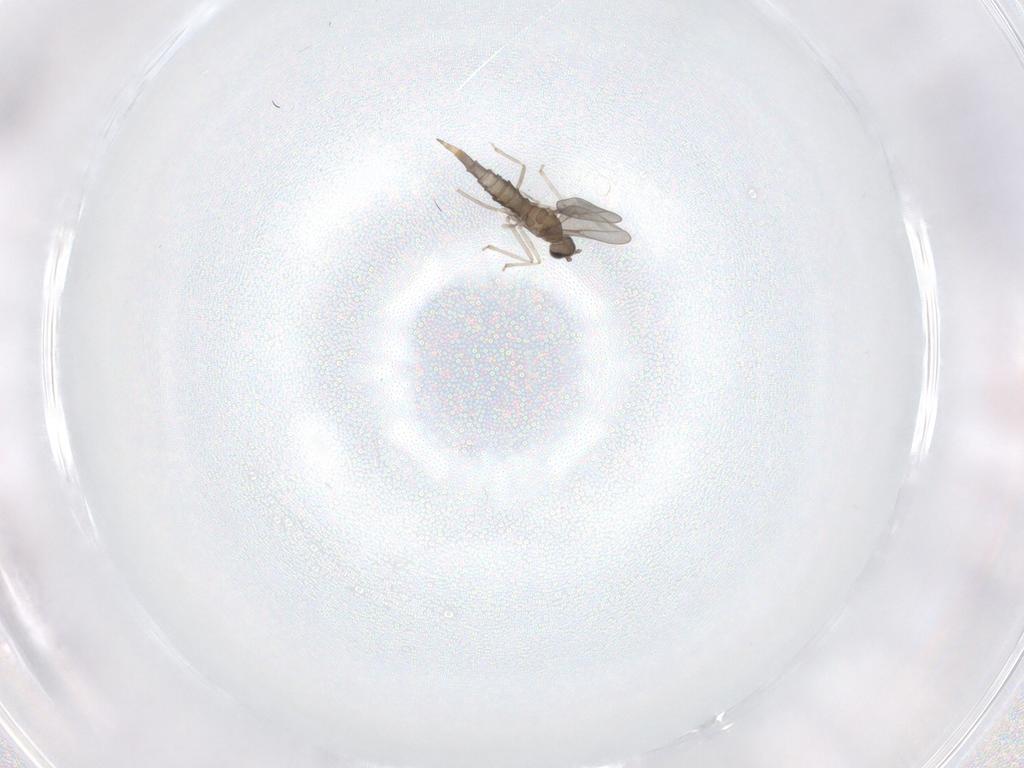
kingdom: Animalia
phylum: Arthropoda
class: Insecta
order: Diptera
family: Cecidomyiidae
